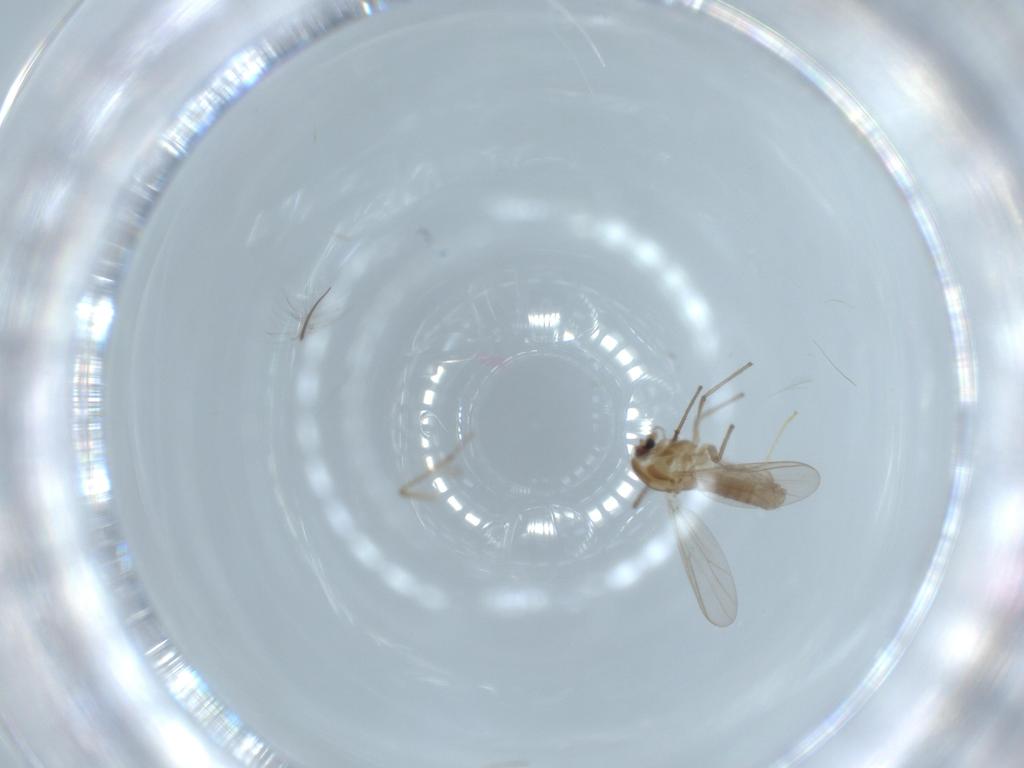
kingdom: Animalia
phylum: Arthropoda
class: Insecta
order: Diptera
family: Chironomidae
